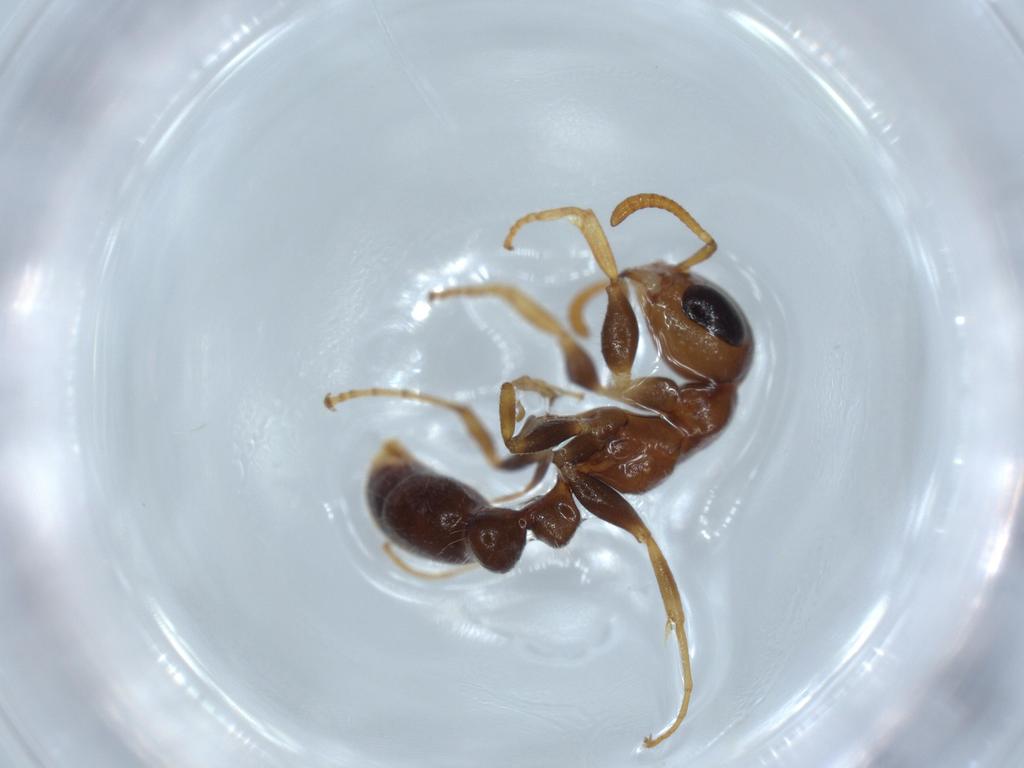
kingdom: Animalia
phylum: Arthropoda
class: Insecta
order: Hymenoptera
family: Formicidae
